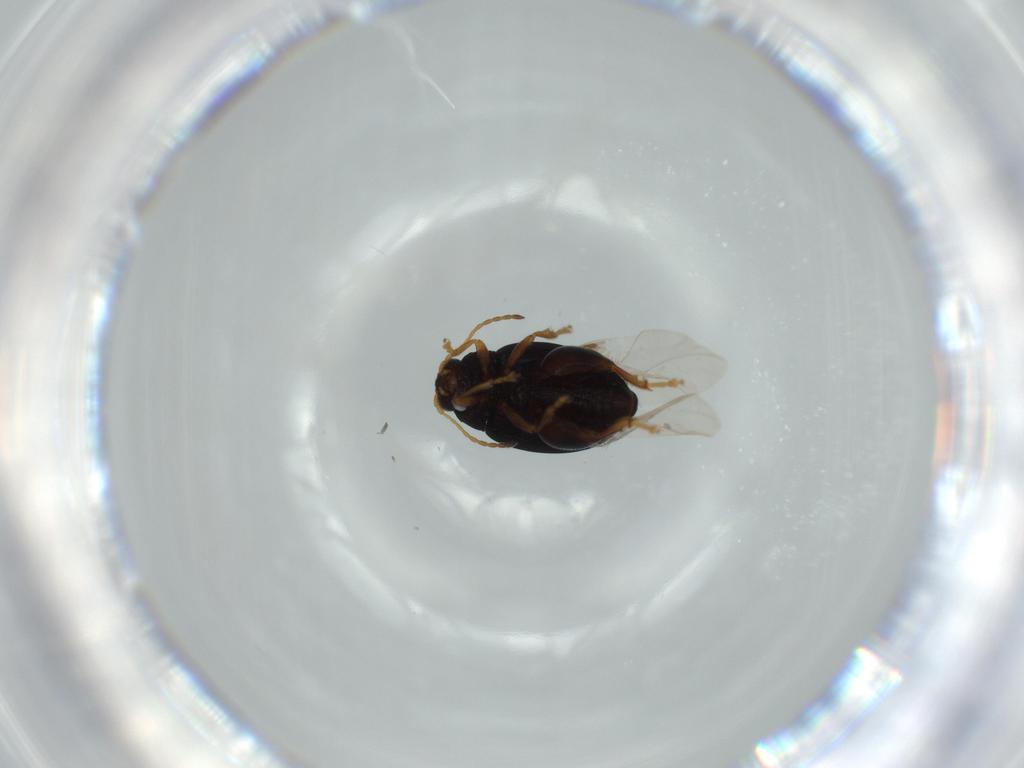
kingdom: Animalia
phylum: Arthropoda
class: Insecta
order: Coleoptera
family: Chrysomelidae
